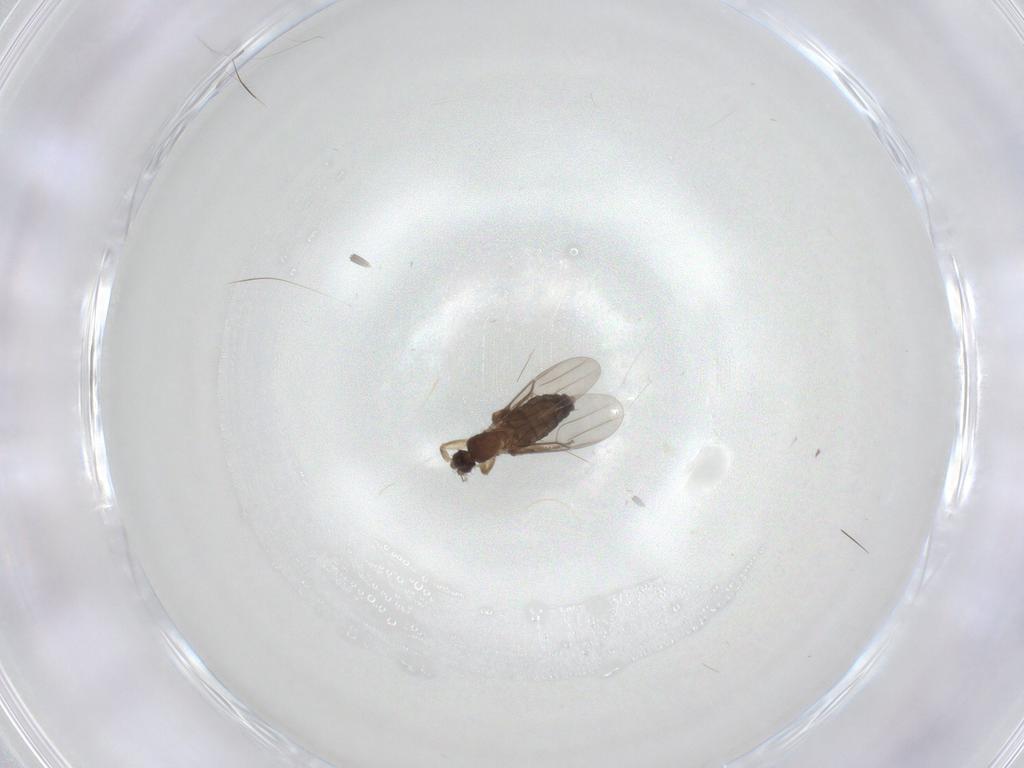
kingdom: Animalia
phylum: Arthropoda
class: Insecta
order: Diptera
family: Phoridae
